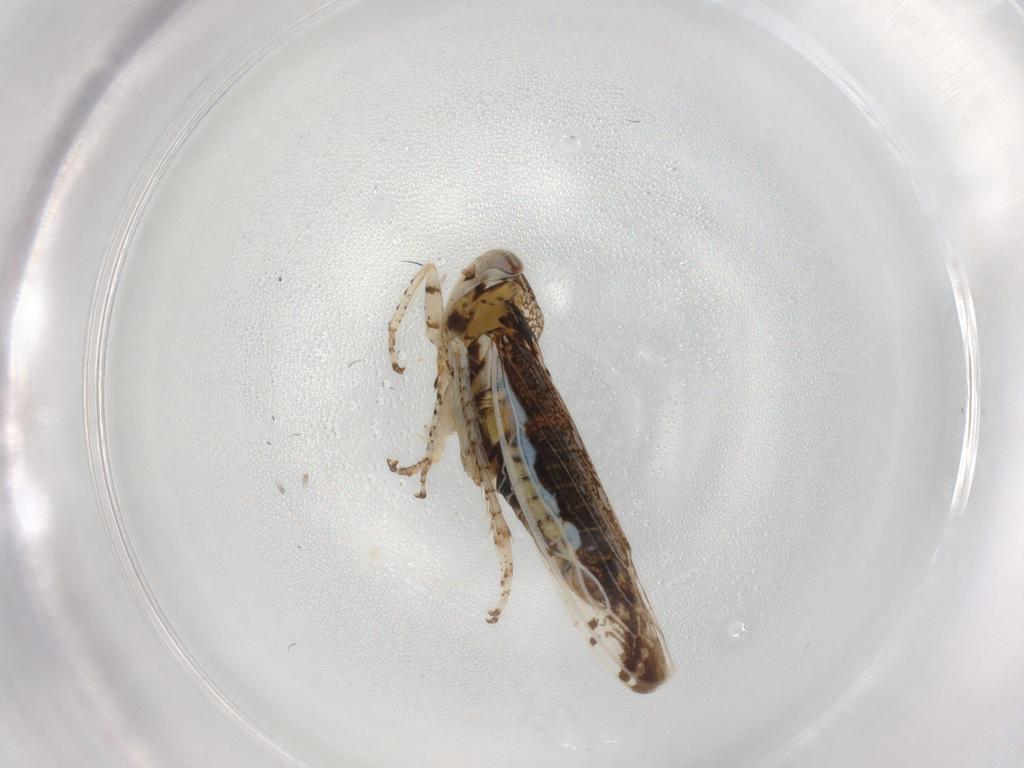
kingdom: Animalia
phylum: Arthropoda
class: Insecta
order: Hemiptera
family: Cicadellidae
